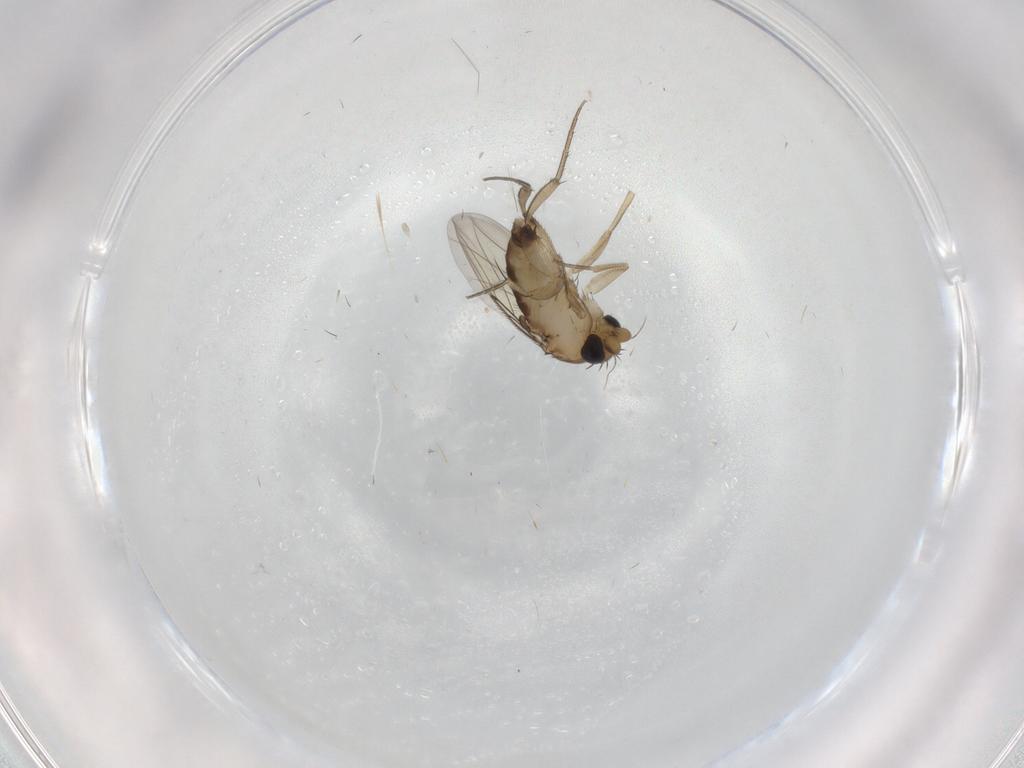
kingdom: Animalia
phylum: Arthropoda
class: Insecta
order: Diptera
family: Phoridae
